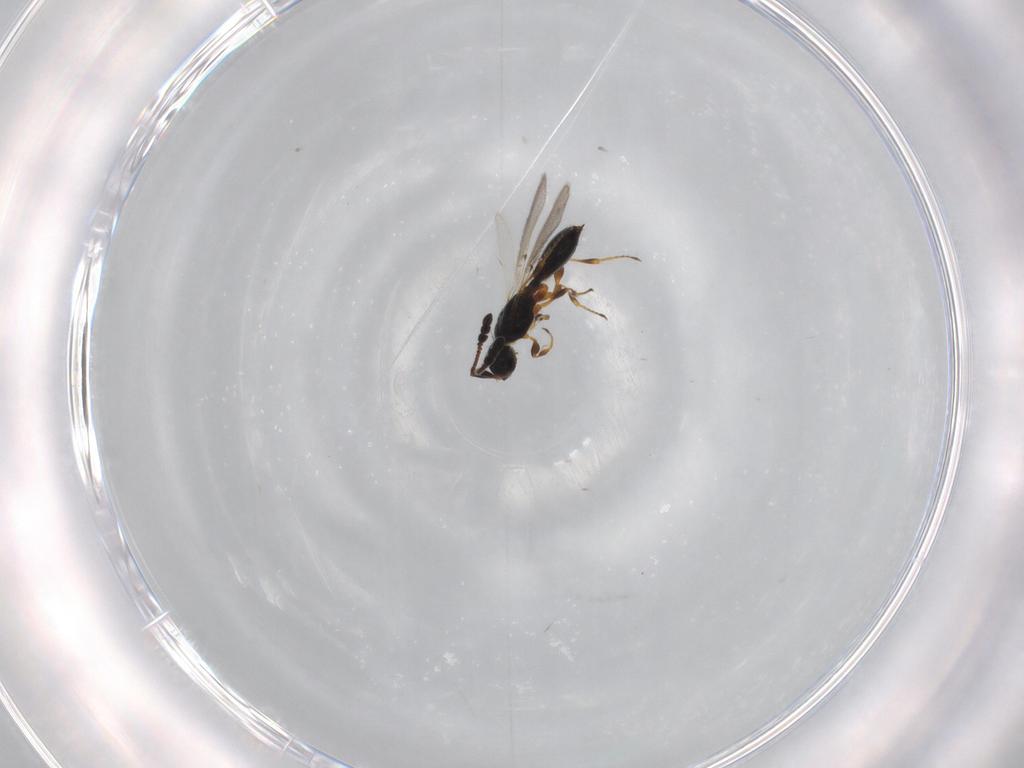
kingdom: Animalia
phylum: Arthropoda
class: Insecta
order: Hymenoptera
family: Diapriidae
